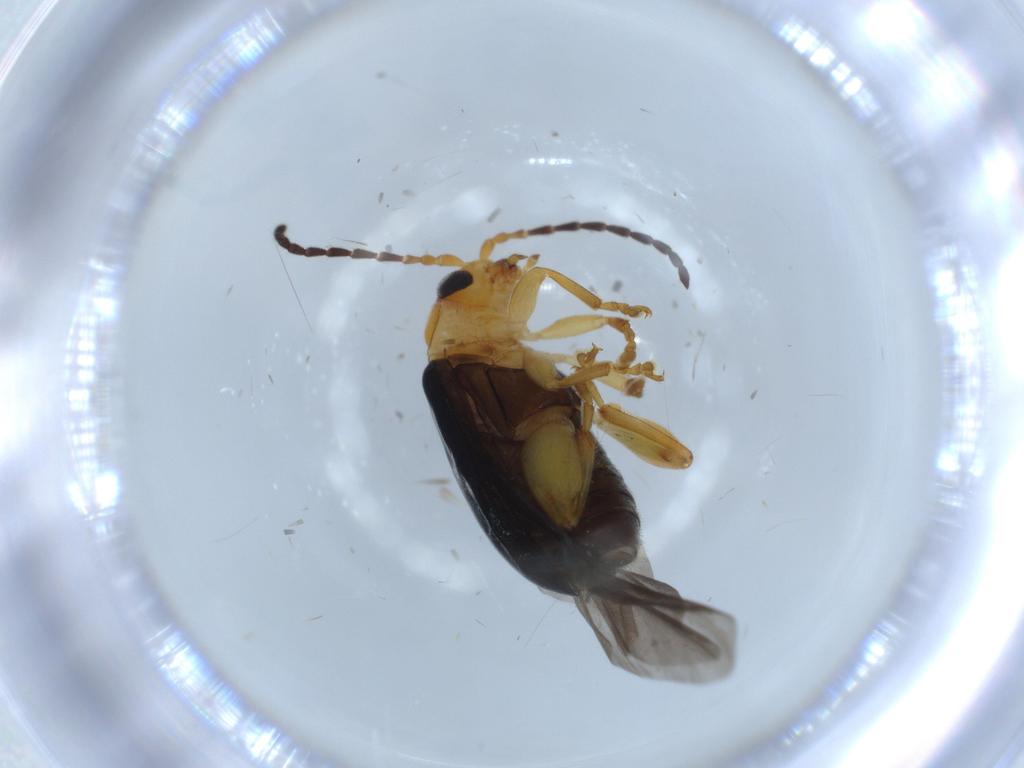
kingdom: Animalia
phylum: Arthropoda
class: Insecta
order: Coleoptera
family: Chrysomelidae
